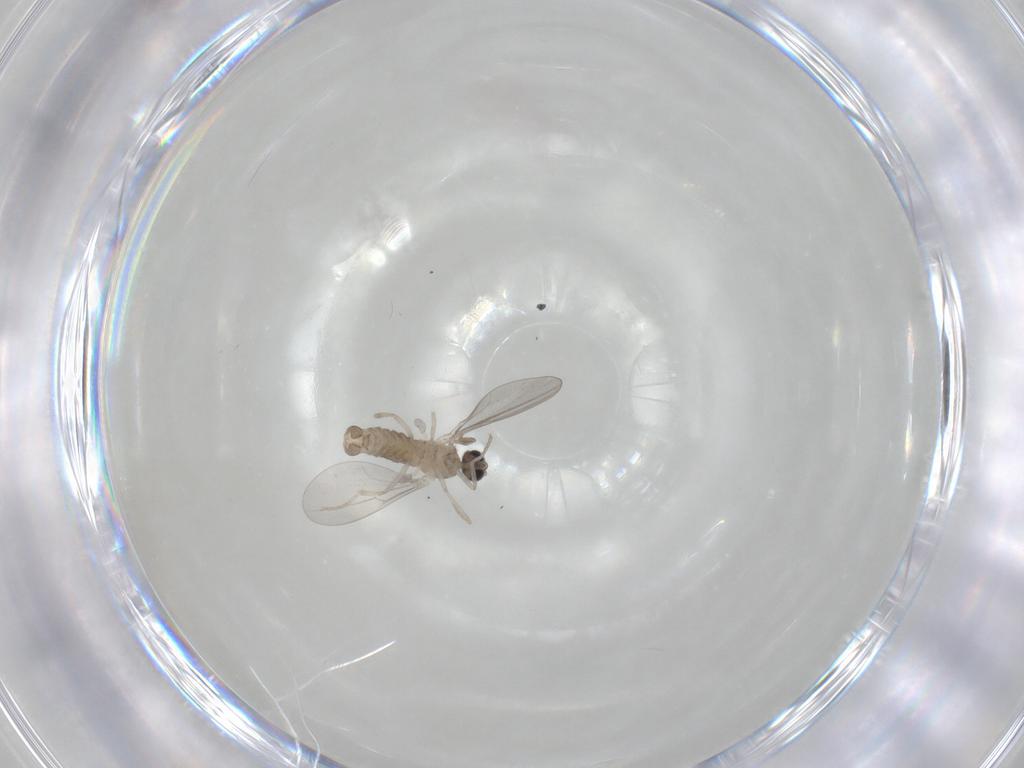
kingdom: Animalia
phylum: Arthropoda
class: Insecta
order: Diptera
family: Cecidomyiidae
